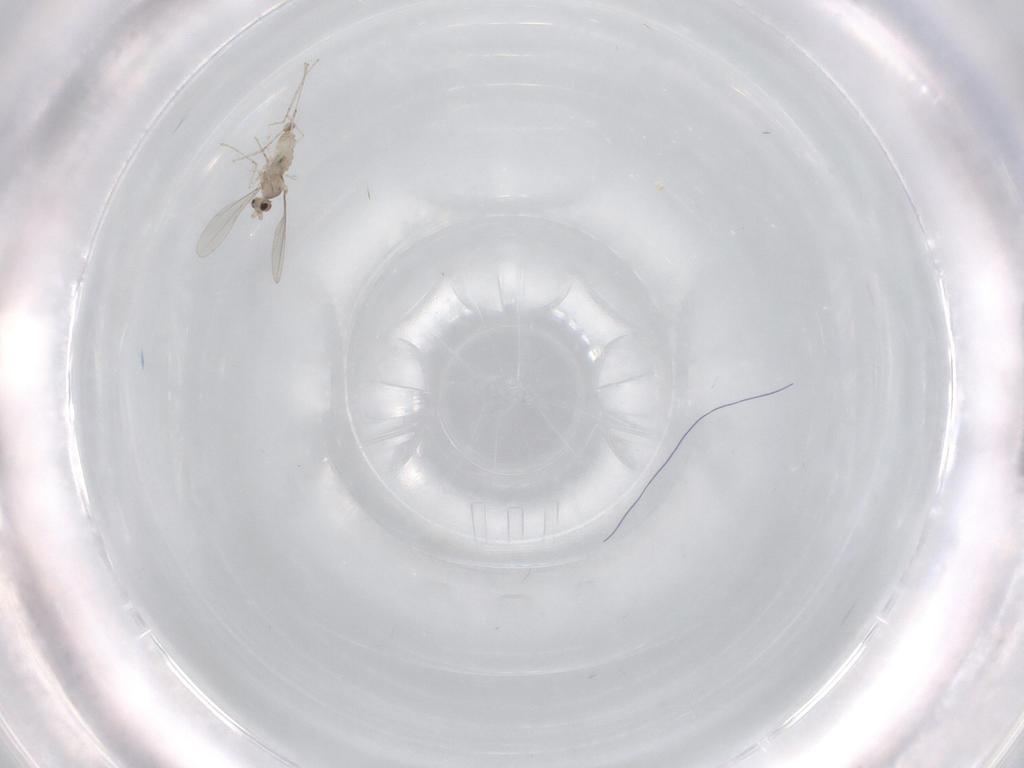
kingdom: Animalia
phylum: Arthropoda
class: Insecta
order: Diptera
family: Cecidomyiidae
